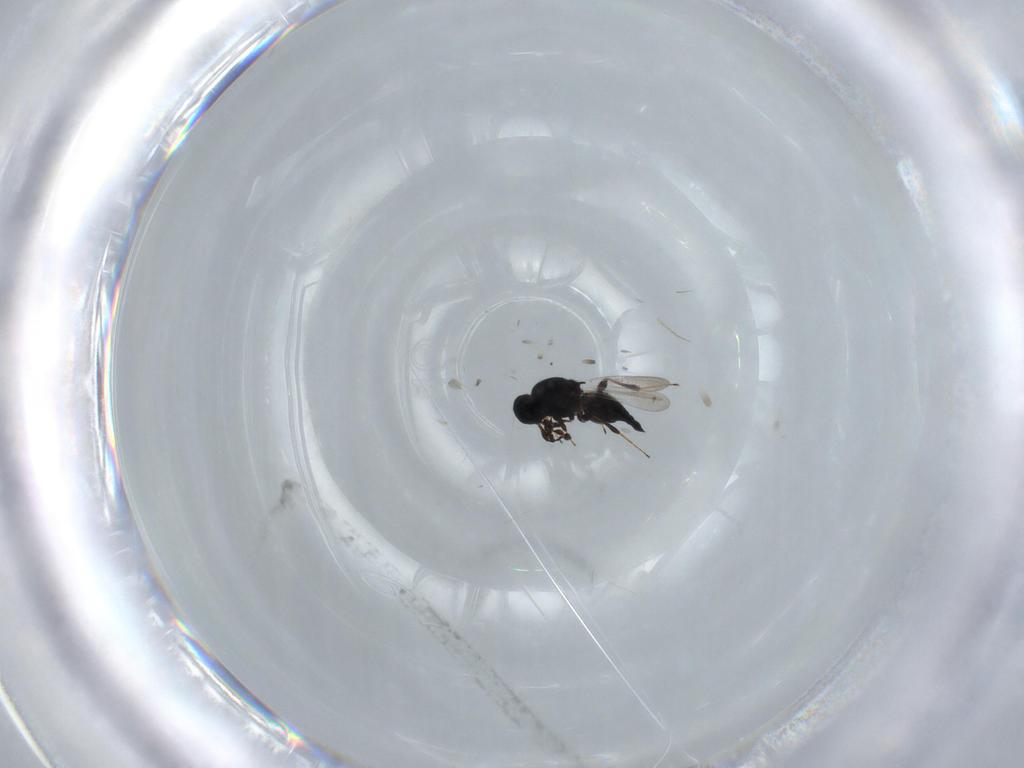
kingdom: Animalia
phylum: Arthropoda
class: Insecta
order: Hymenoptera
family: Platygastridae
